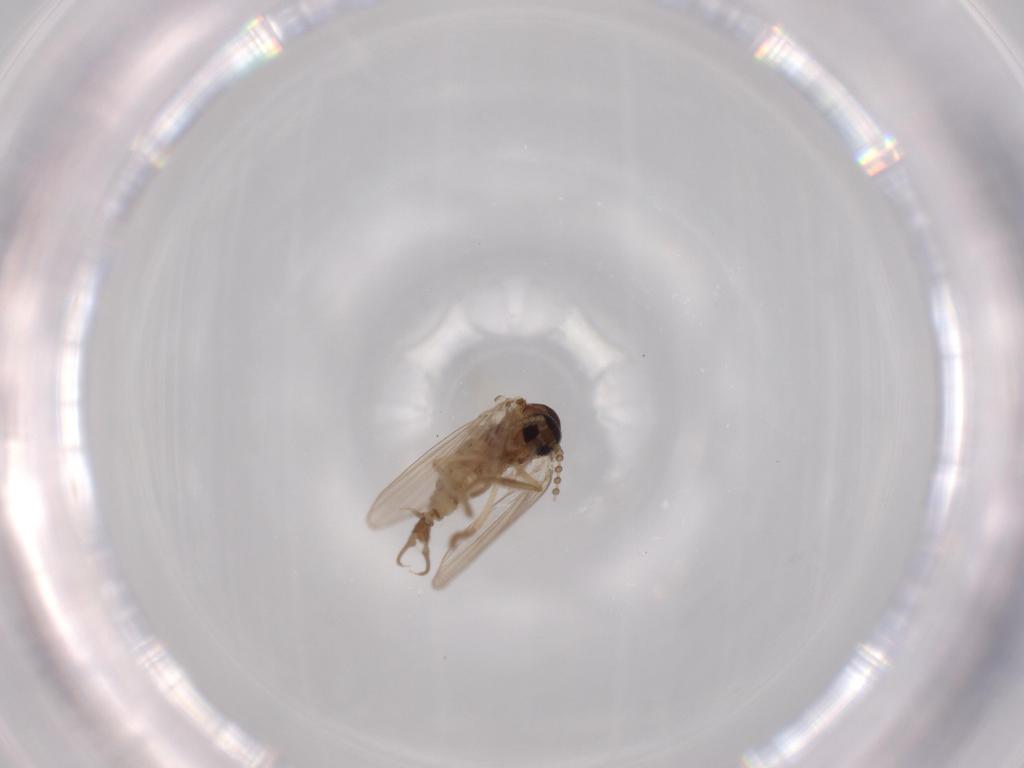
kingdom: Animalia
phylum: Arthropoda
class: Insecta
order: Diptera
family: Psychodidae
